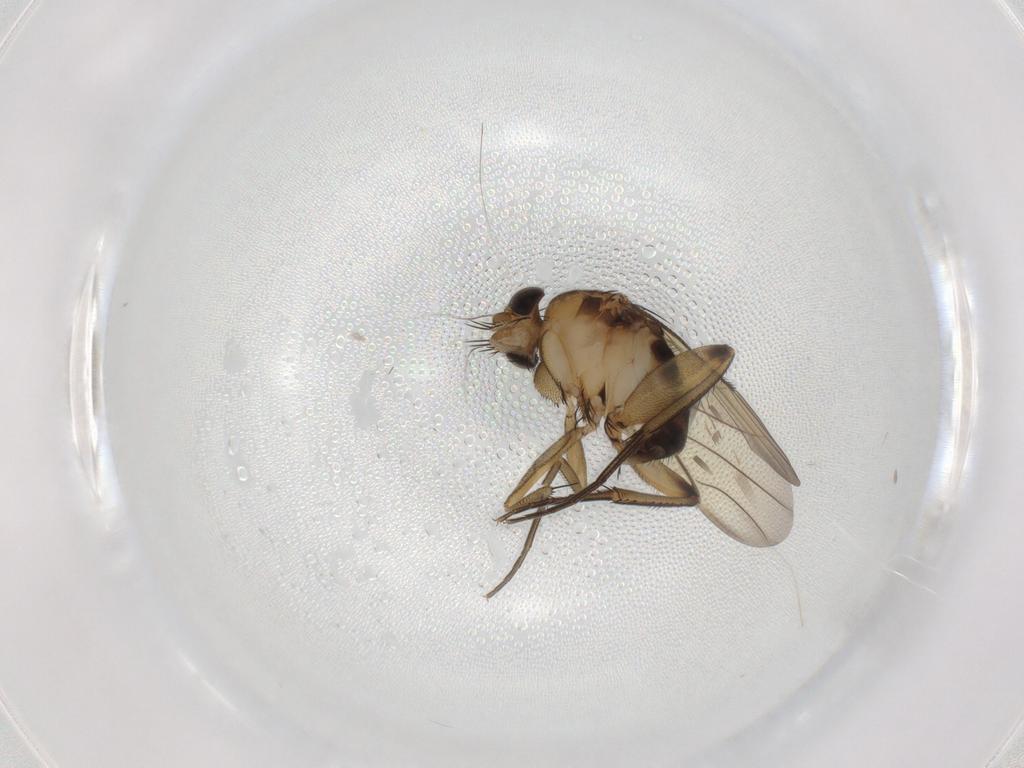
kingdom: Animalia
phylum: Arthropoda
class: Insecta
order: Diptera
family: Phoridae
